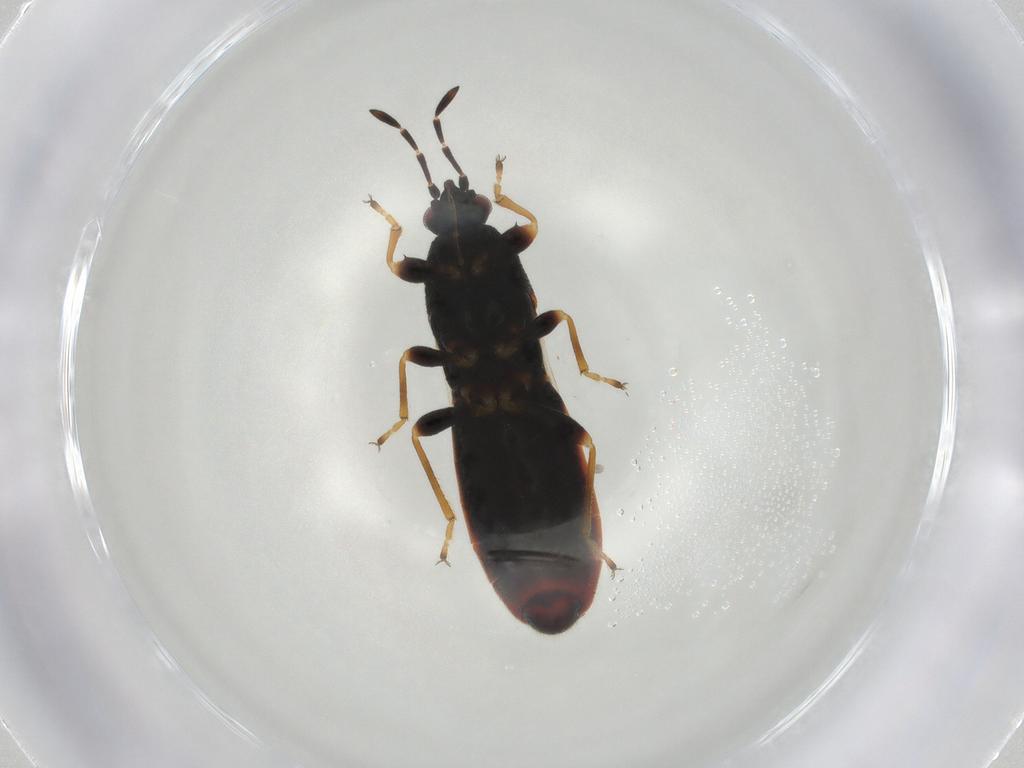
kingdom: Animalia
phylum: Arthropoda
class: Insecta
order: Hemiptera
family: Blissidae
